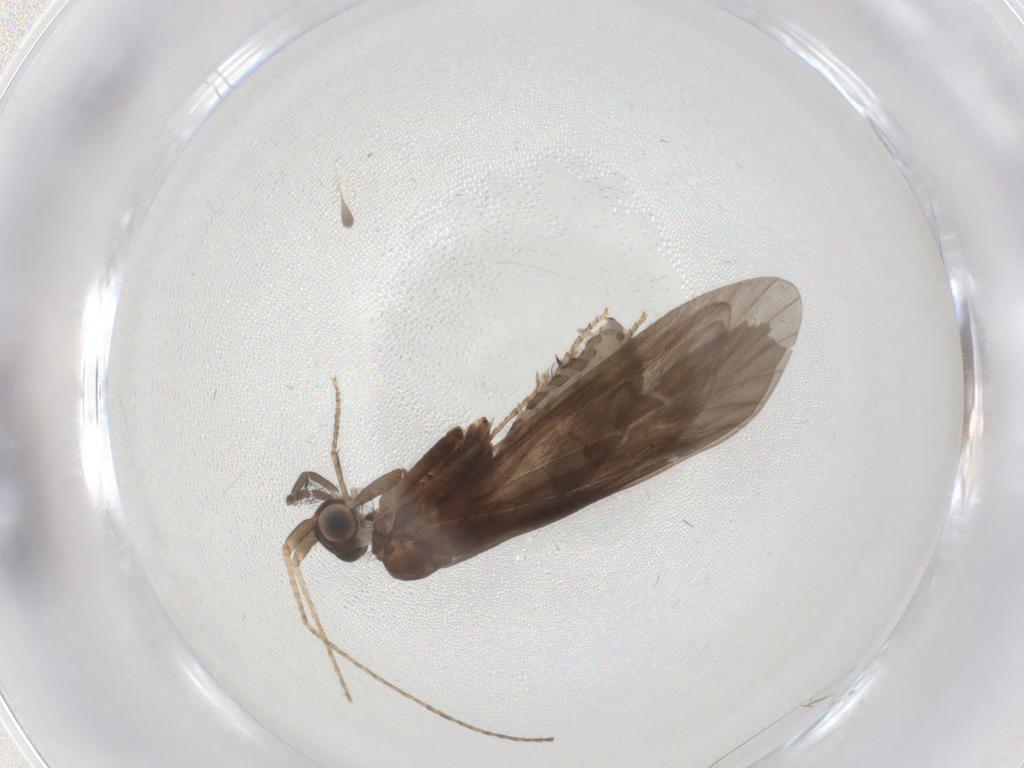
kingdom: Animalia
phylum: Arthropoda
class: Insecta
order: Trichoptera
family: Helicopsychidae
